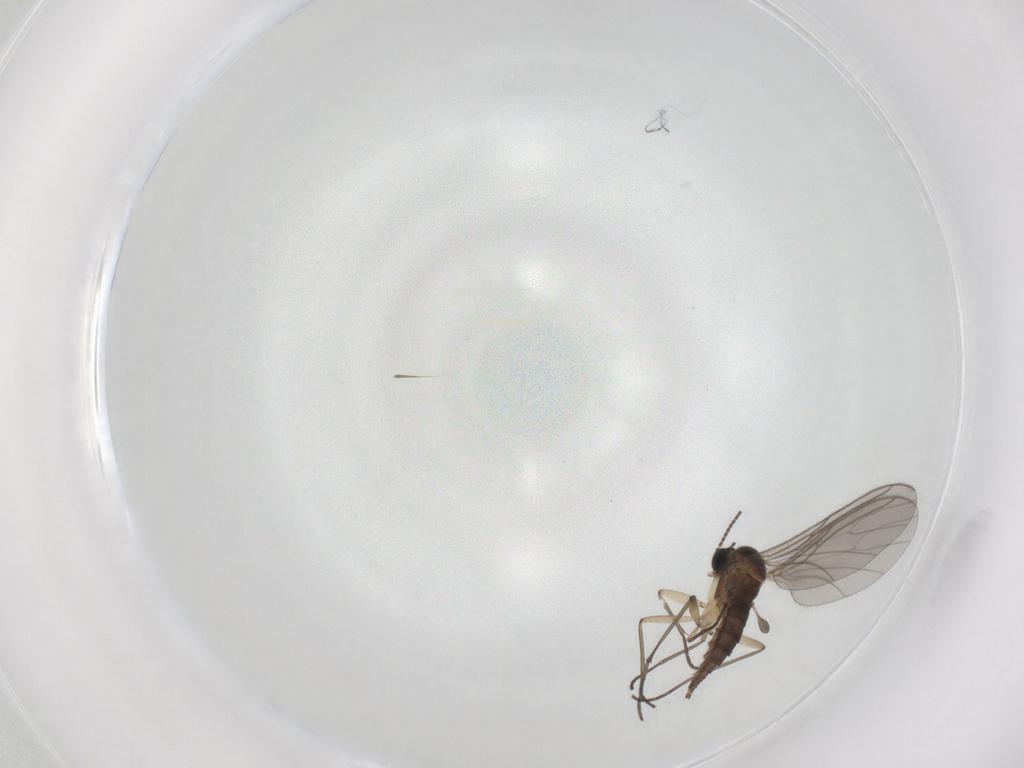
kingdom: Animalia
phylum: Arthropoda
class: Insecta
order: Diptera
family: Sciaridae
